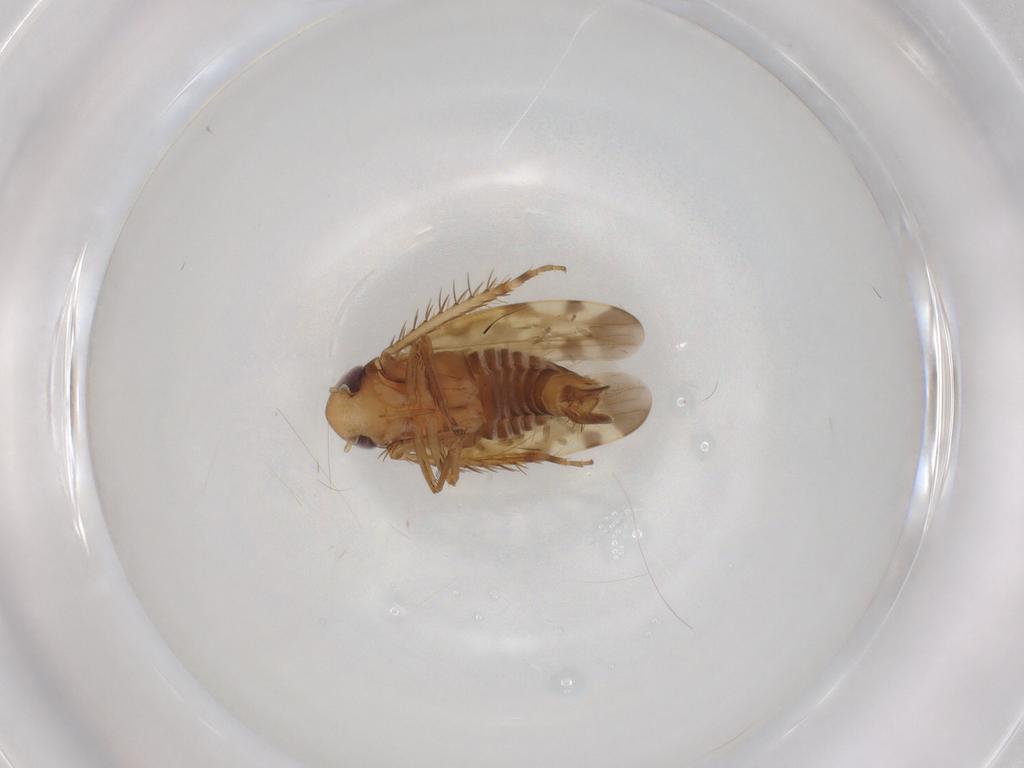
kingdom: Animalia
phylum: Arthropoda
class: Insecta
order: Hemiptera
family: Cicadellidae
